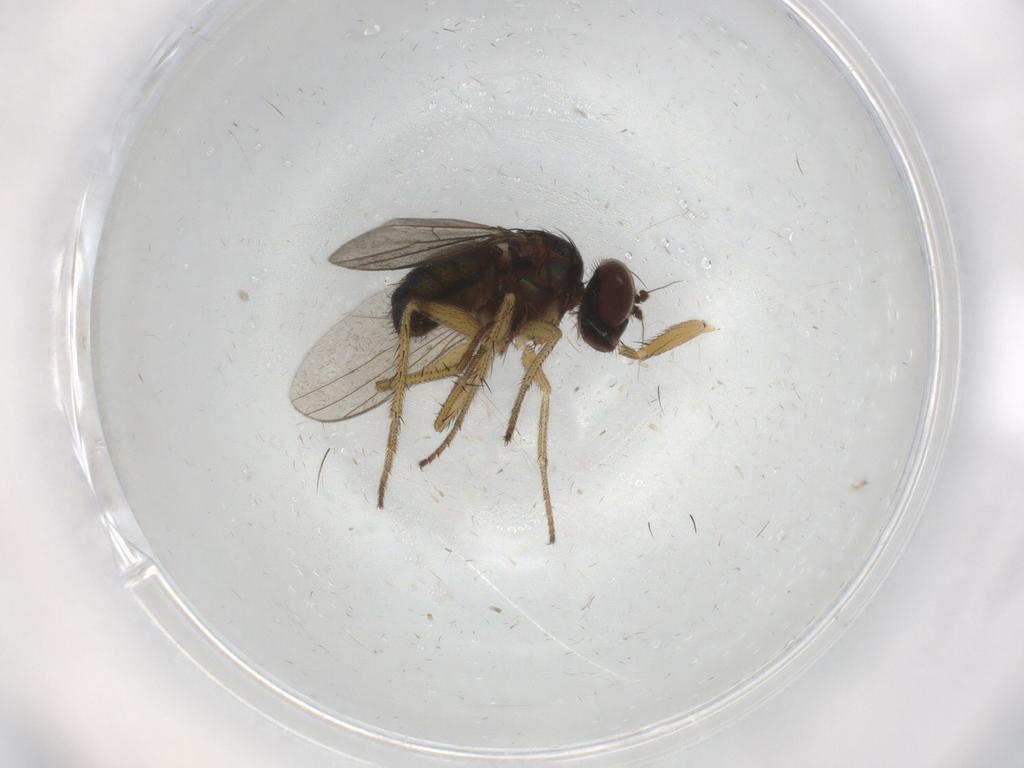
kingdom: Animalia
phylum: Arthropoda
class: Insecta
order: Diptera
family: Dolichopodidae
